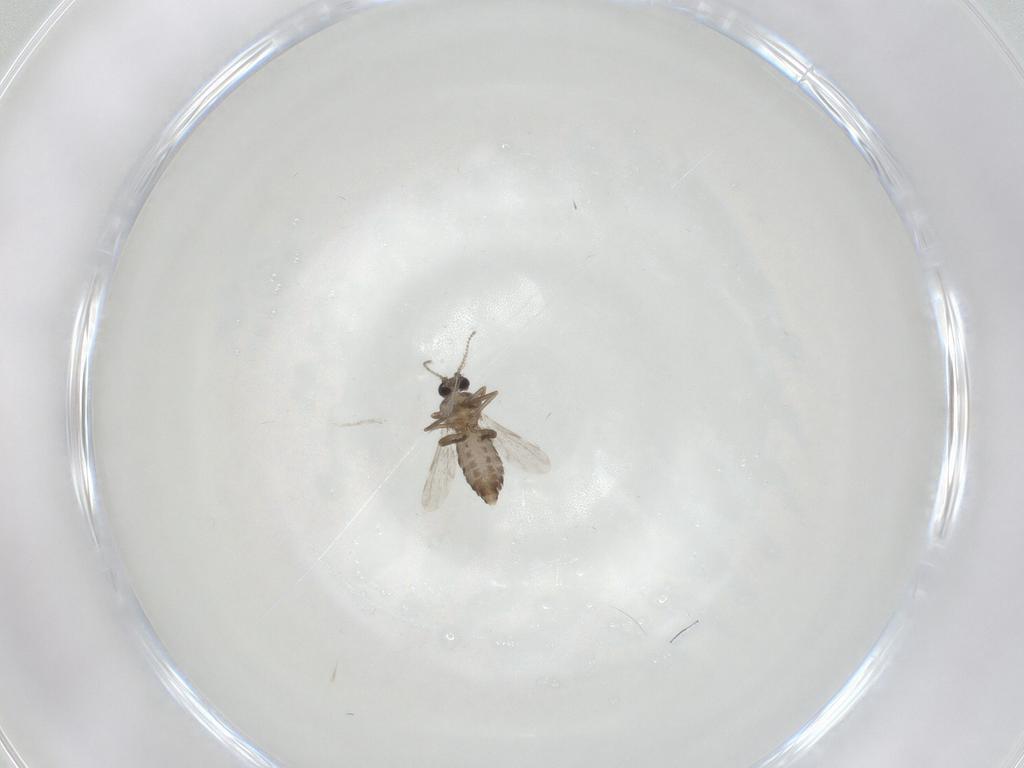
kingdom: Animalia
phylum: Arthropoda
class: Insecta
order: Diptera
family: Ceratopogonidae
